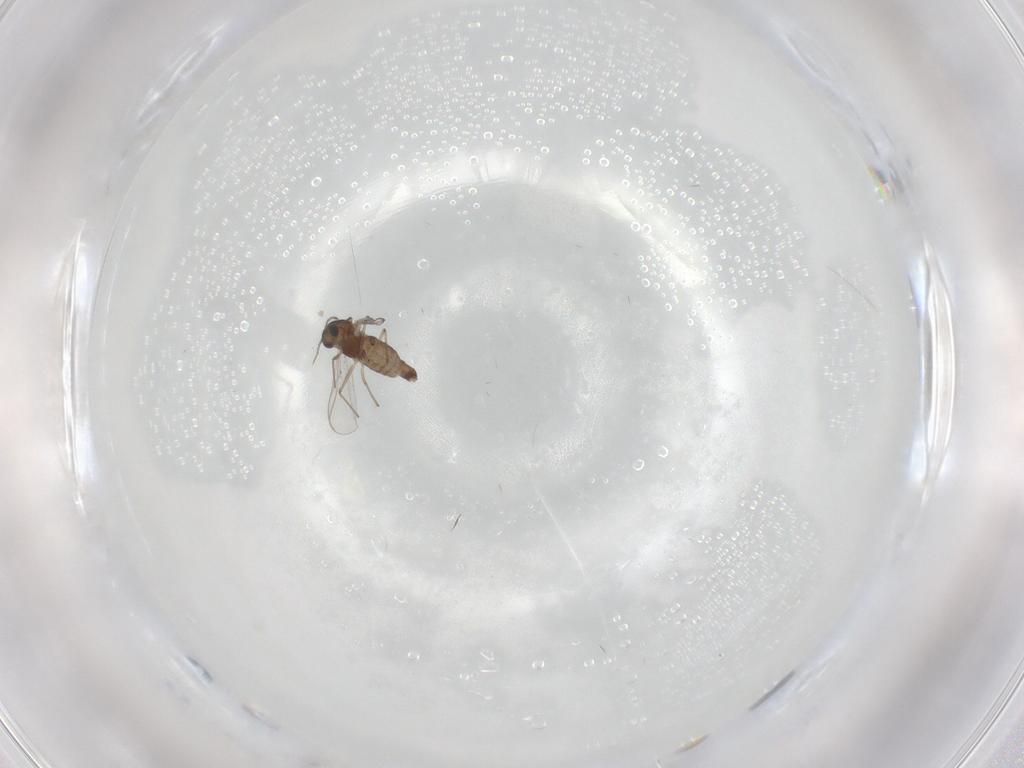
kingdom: Animalia
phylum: Arthropoda
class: Insecta
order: Diptera
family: Chironomidae
